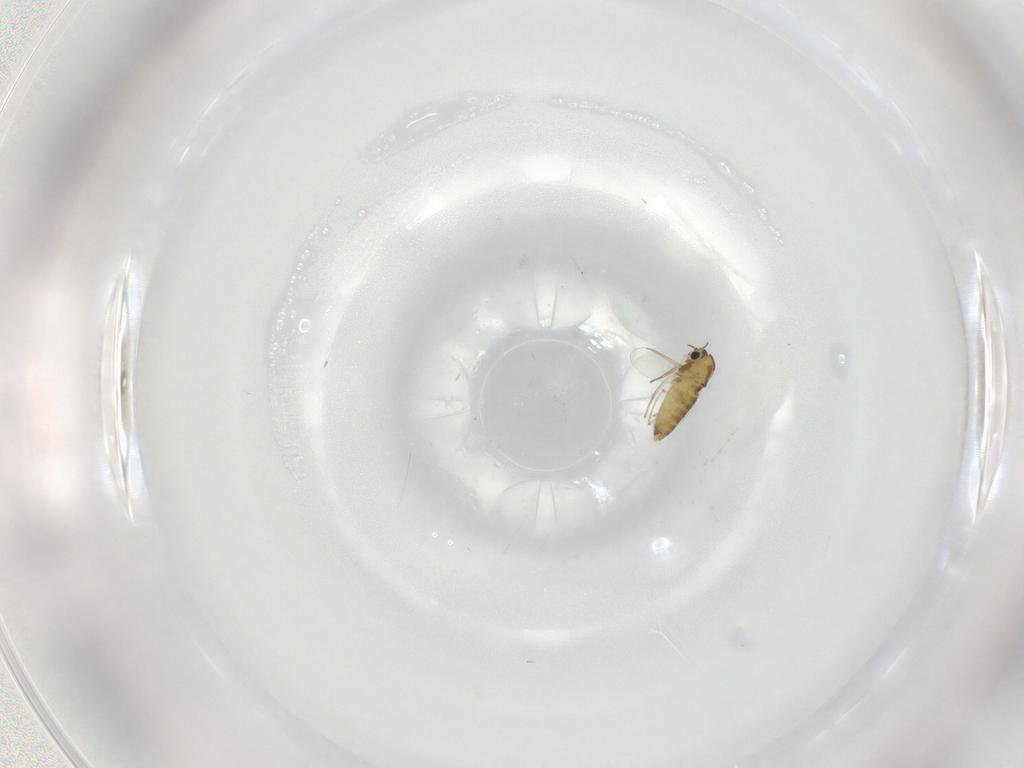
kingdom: Animalia
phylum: Arthropoda
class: Insecta
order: Diptera
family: Chironomidae
